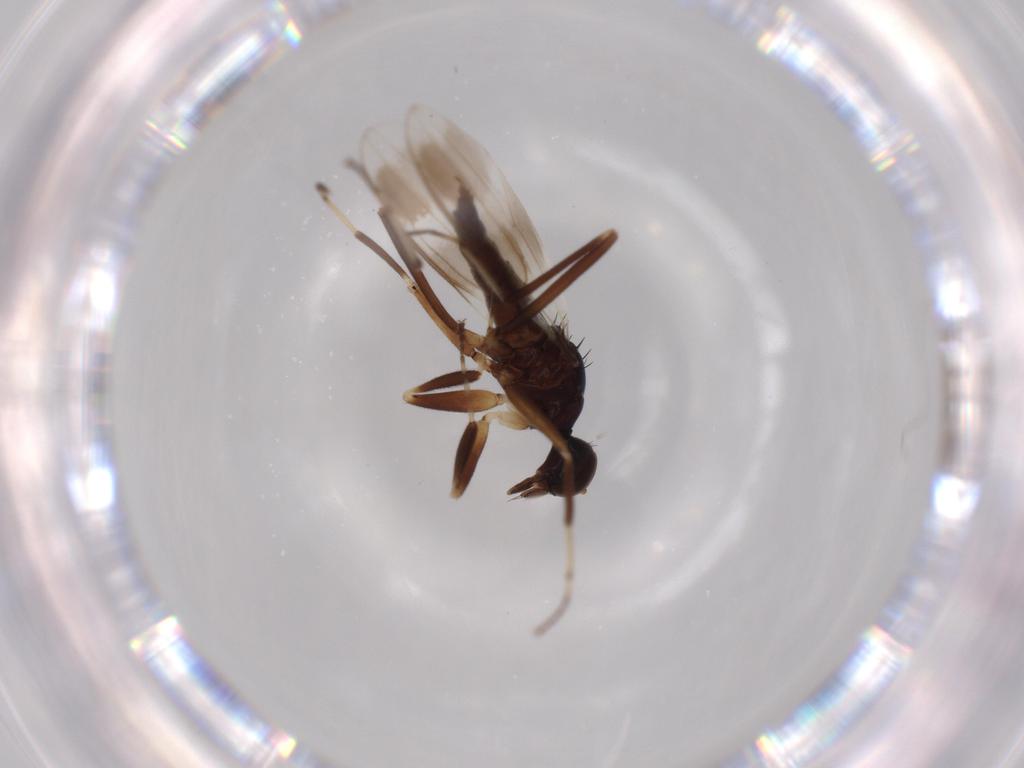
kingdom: Animalia
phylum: Arthropoda
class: Insecta
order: Diptera
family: Hybotidae
